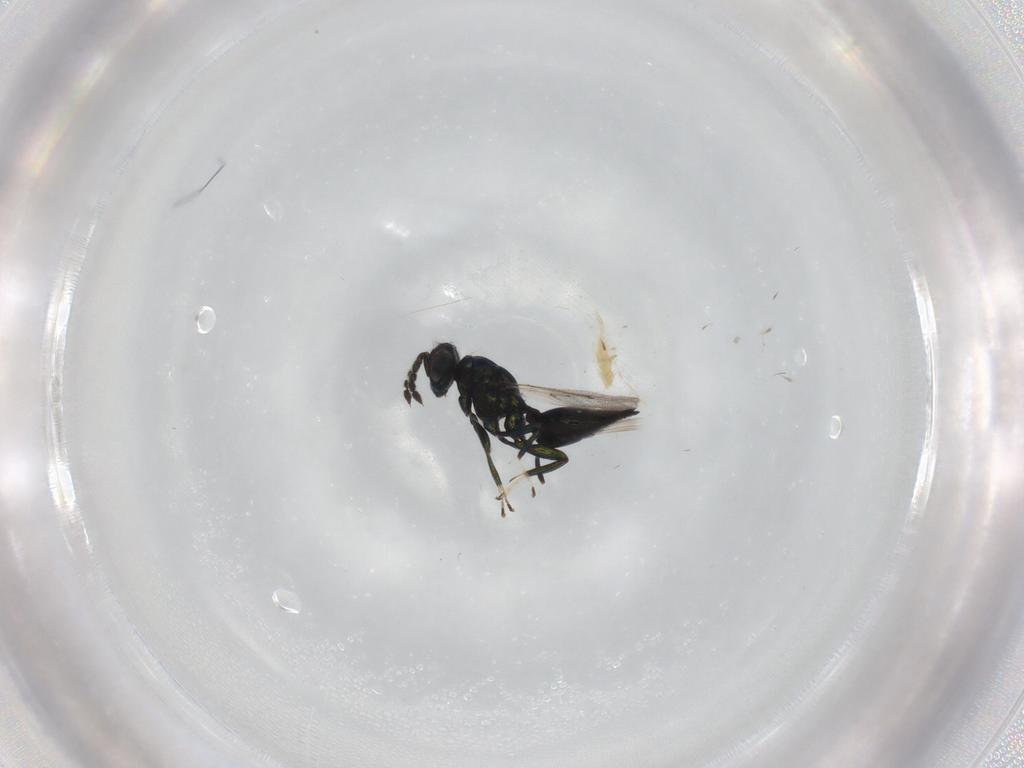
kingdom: Animalia
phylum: Arthropoda
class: Insecta
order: Hymenoptera
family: Eulophidae
